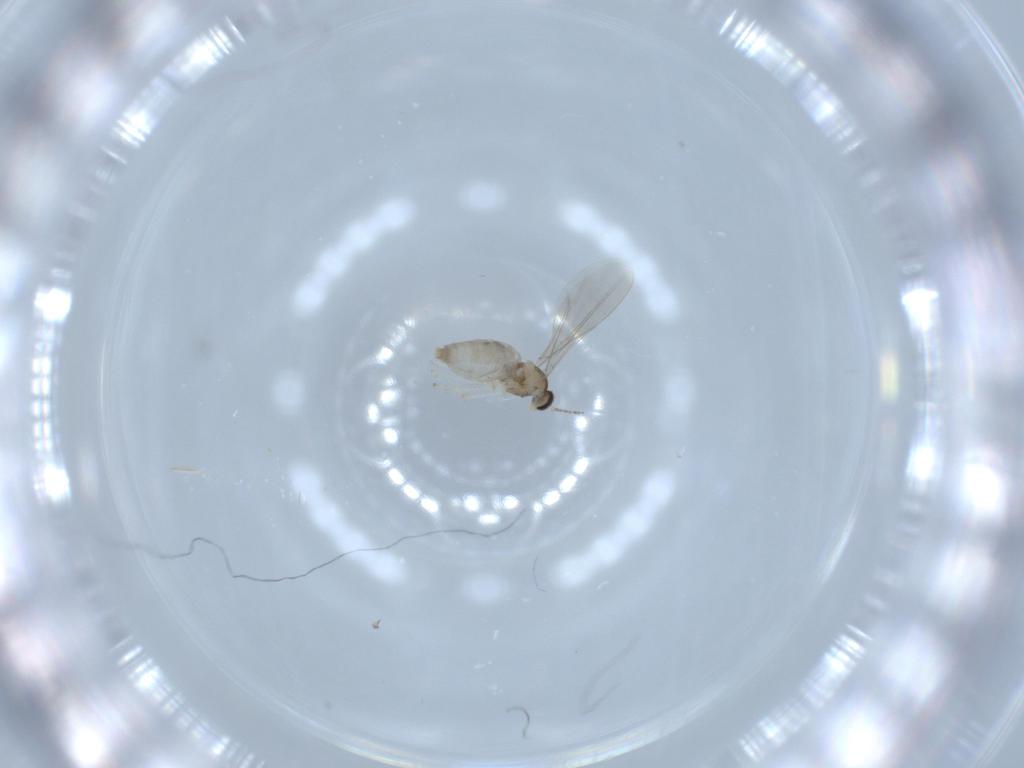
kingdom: Animalia
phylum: Arthropoda
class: Insecta
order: Diptera
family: Cecidomyiidae
